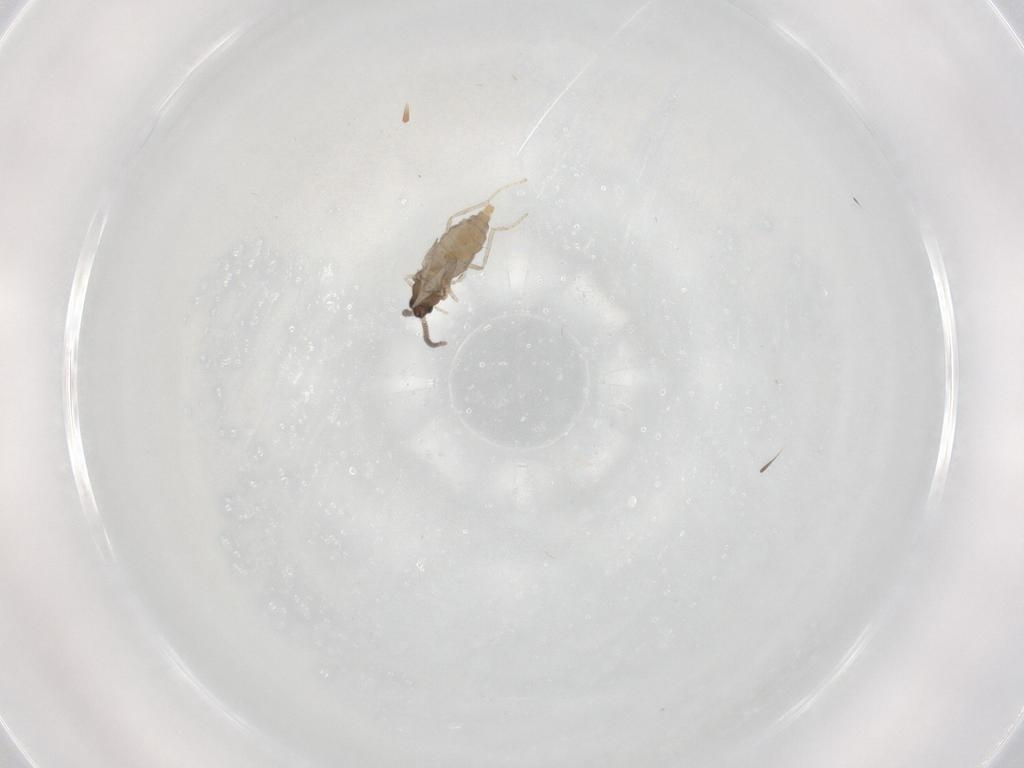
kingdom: Animalia
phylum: Arthropoda
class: Insecta
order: Diptera
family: Cecidomyiidae
